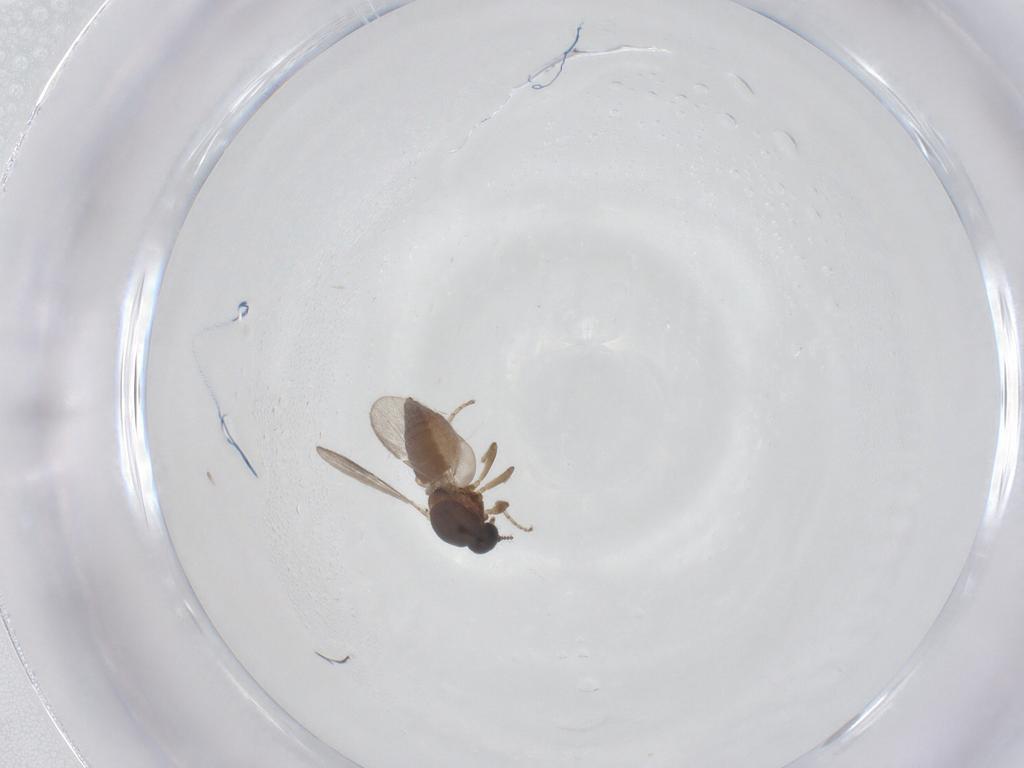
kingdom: Animalia
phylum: Arthropoda
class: Insecta
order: Diptera
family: Ceratopogonidae
